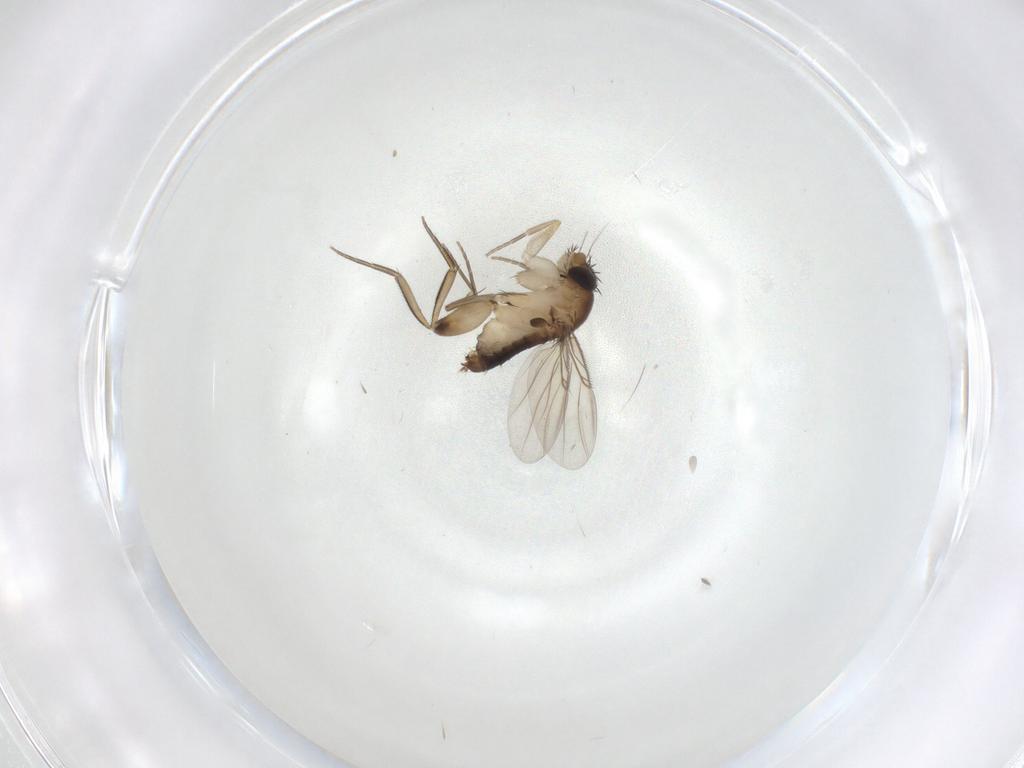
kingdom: Animalia
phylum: Arthropoda
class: Insecta
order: Diptera
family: Phoridae
